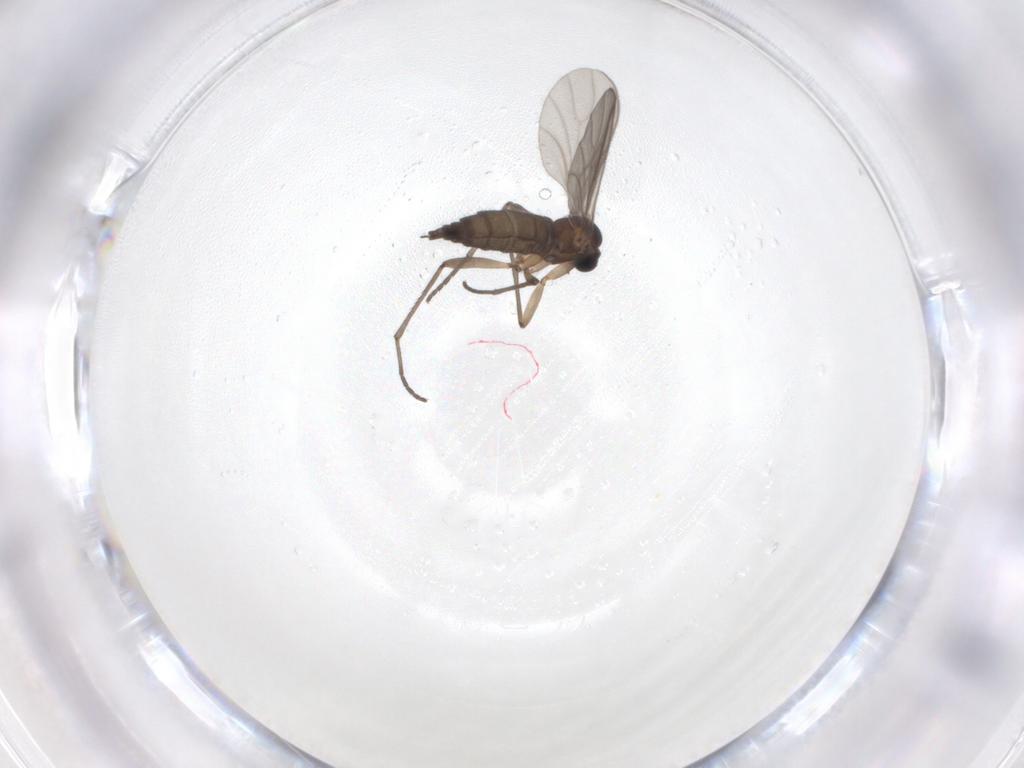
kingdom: Animalia
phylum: Arthropoda
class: Insecta
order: Diptera
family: Sciaridae
